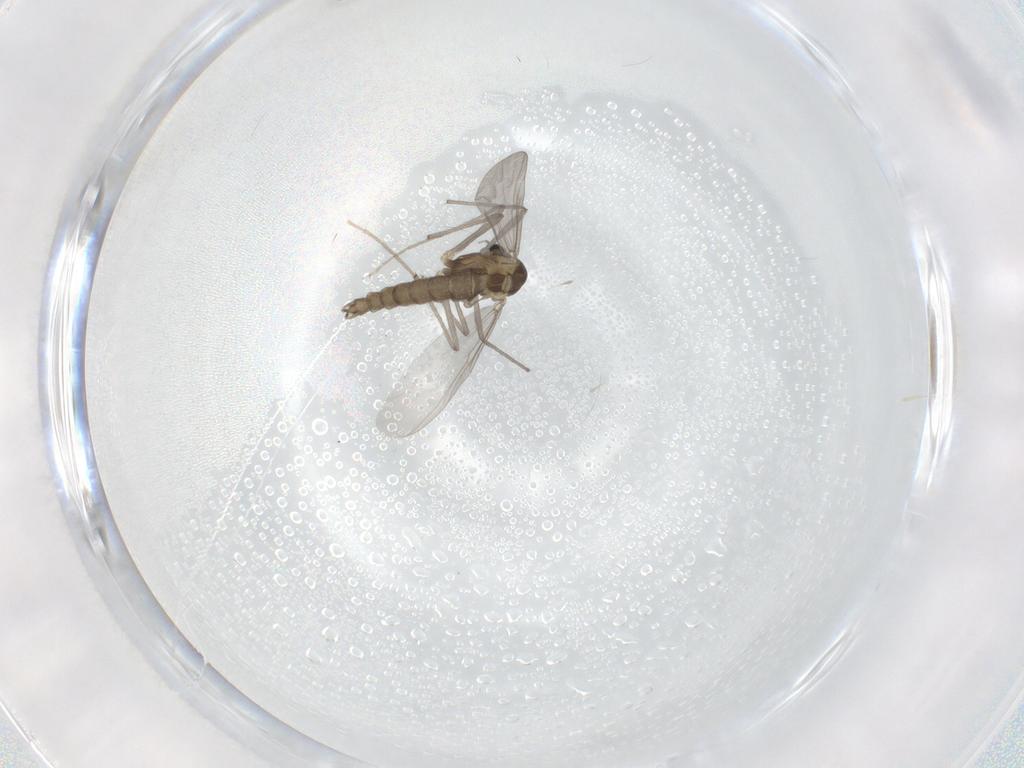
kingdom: Animalia
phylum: Arthropoda
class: Insecta
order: Diptera
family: Chironomidae
